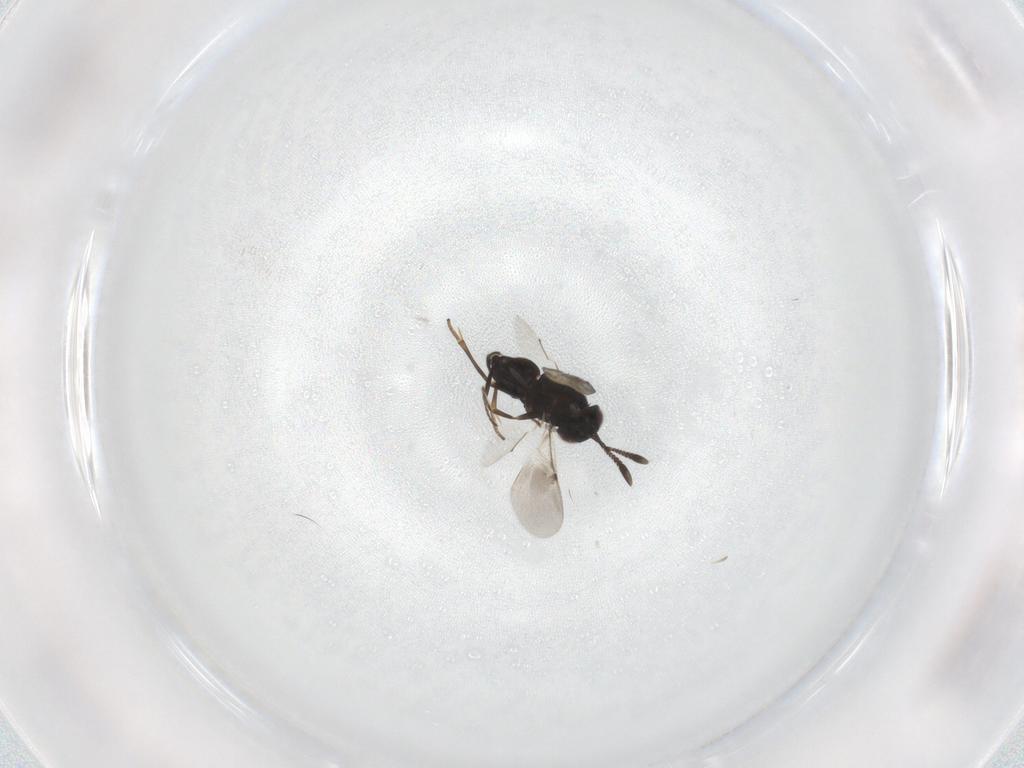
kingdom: Animalia
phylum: Arthropoda
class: Insecta
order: Hymenoptera
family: Encyrtidae
